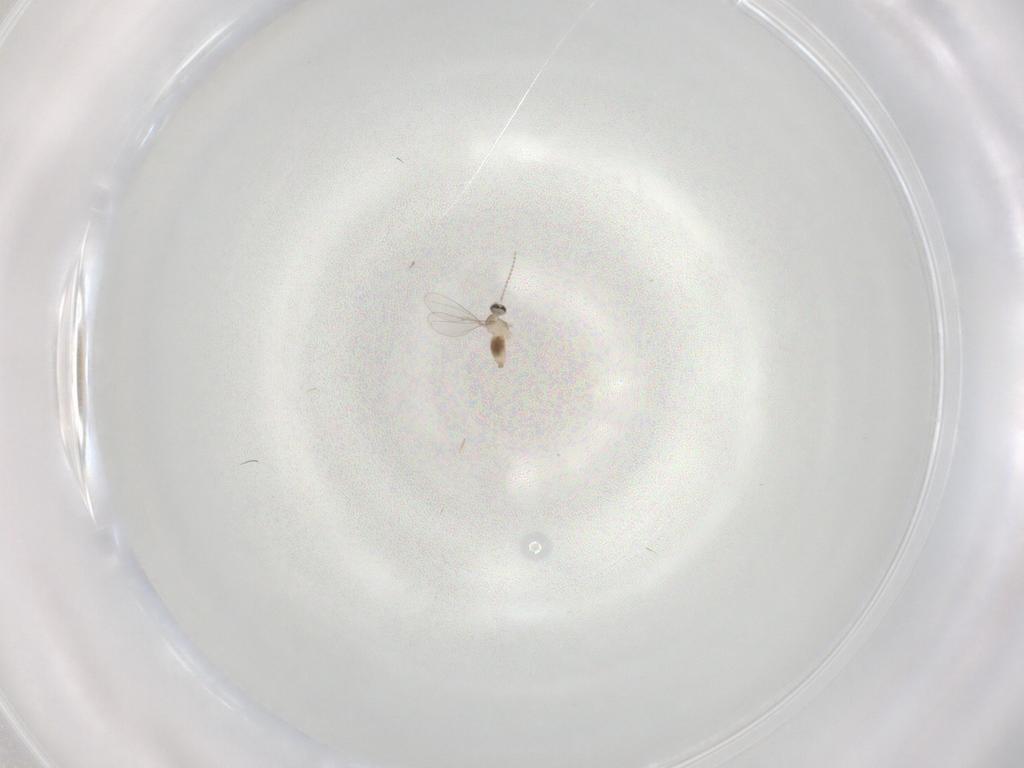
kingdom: Animalia
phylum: Arthropoda
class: Insecta
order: Diptera
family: Cecidomyiidae
